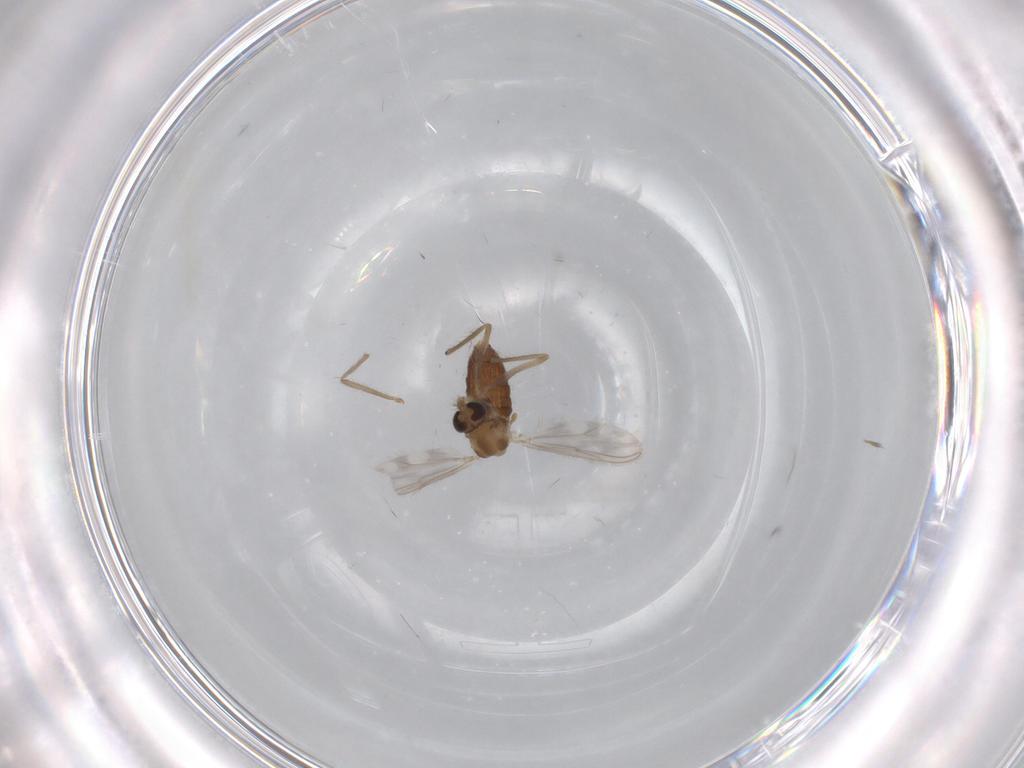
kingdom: Animalia
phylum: Arthropoda
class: Insecta
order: Diptera
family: Chironomidae
